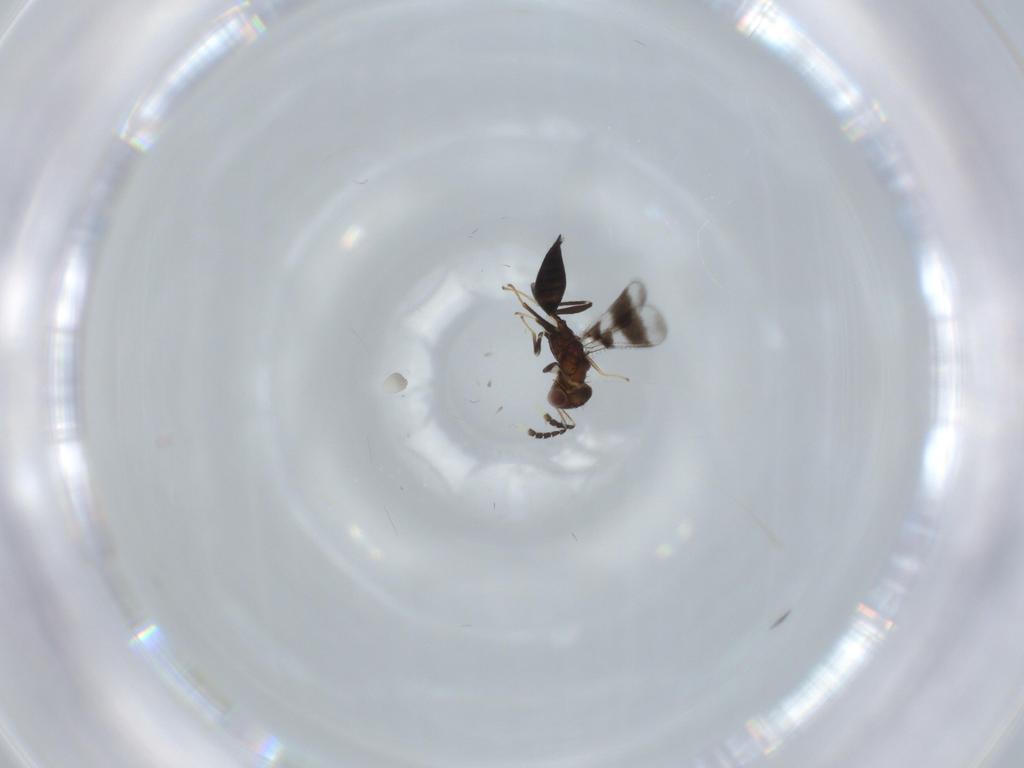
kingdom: Animalia
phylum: Arthropoda
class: Insecta
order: Hymenoptera
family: Eulophidae
